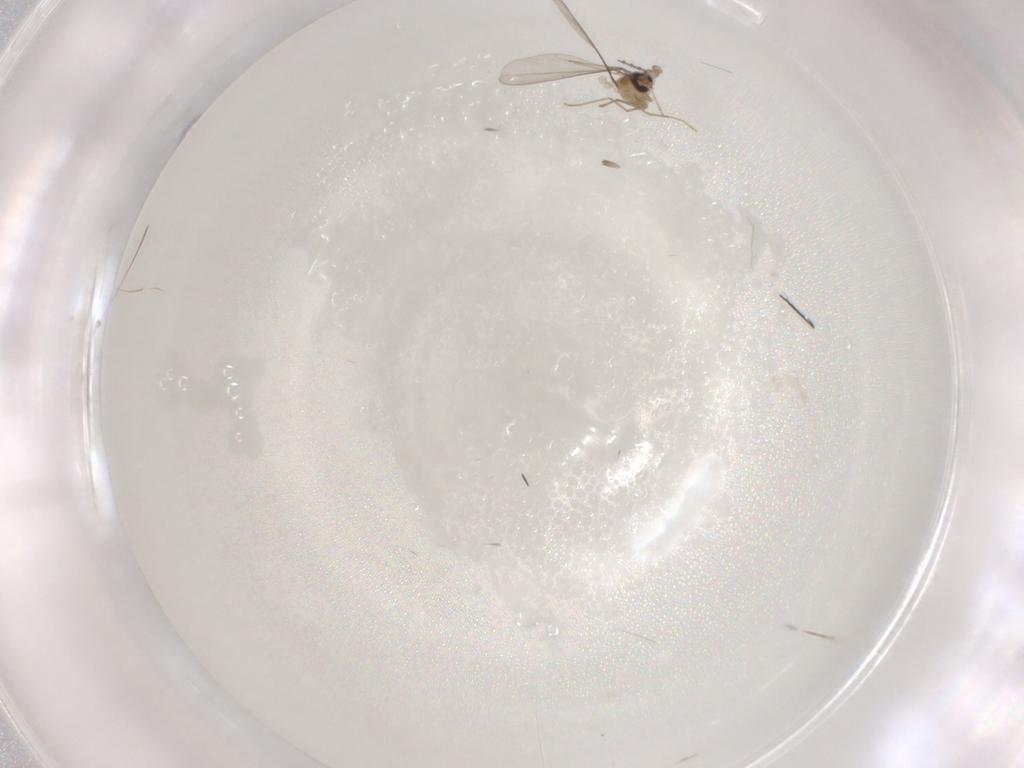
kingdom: Animalia
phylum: Arthropoda
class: Insecta
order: Diptera
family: Cecidomyiidae
